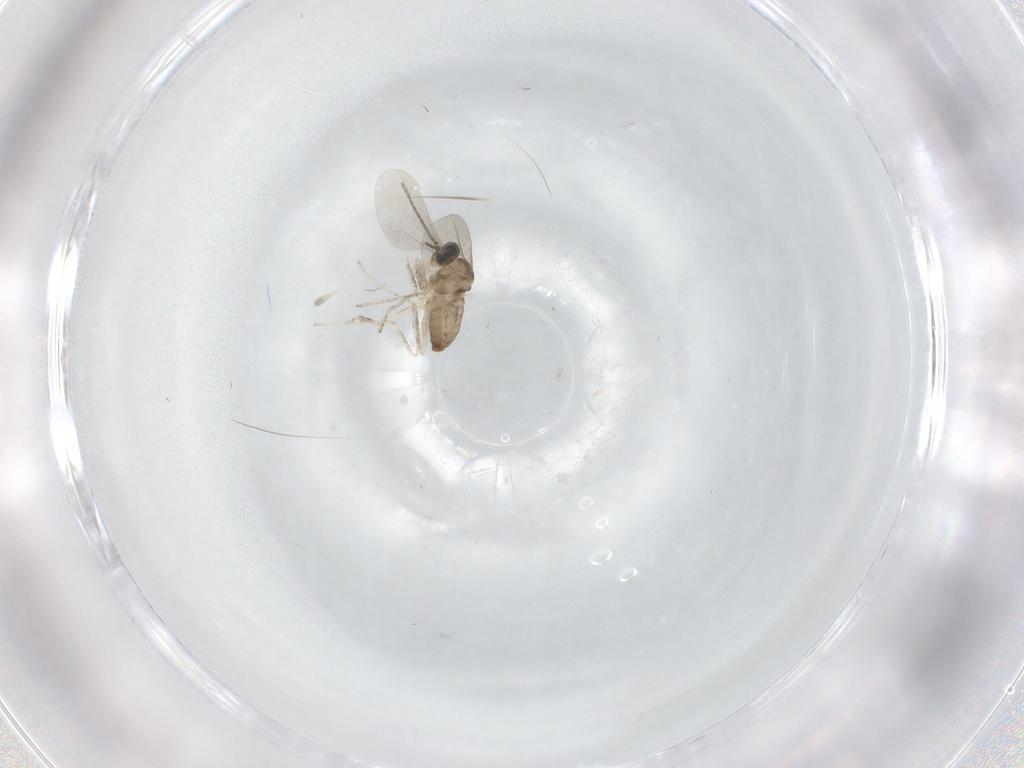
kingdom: Animalia
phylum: Arthropoda
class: Insecta
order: Diptera
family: Cecidomyiidae
